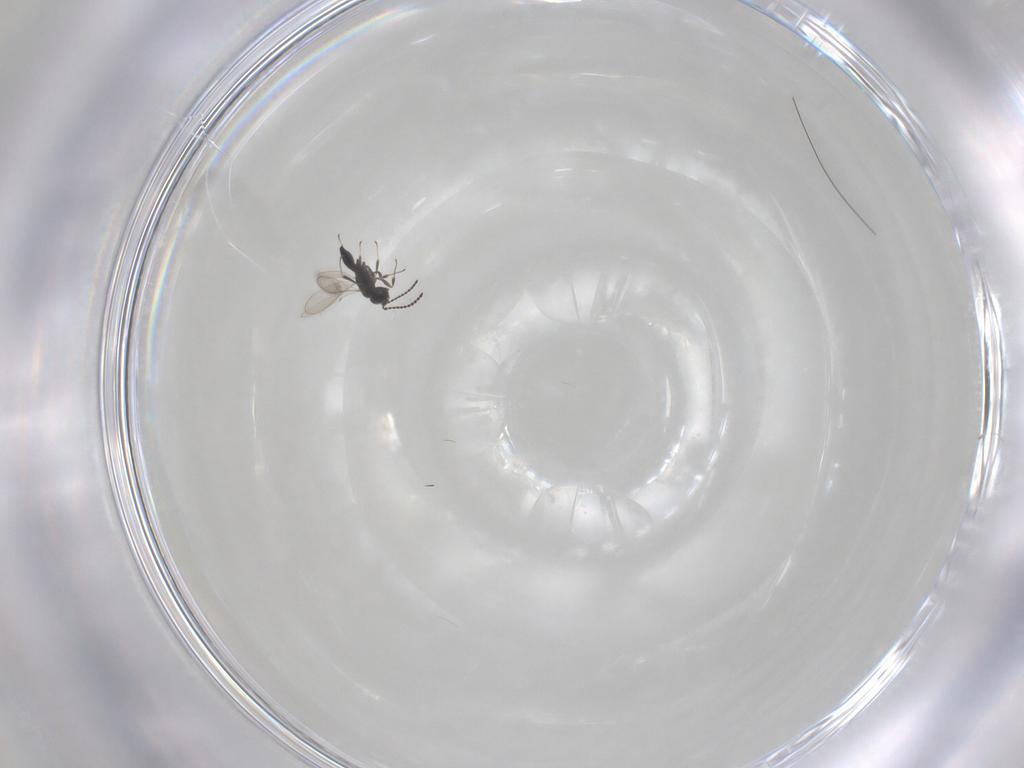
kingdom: Animalia
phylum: Arthropoda
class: Insecta
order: Hymenoptera
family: Scelionidae
